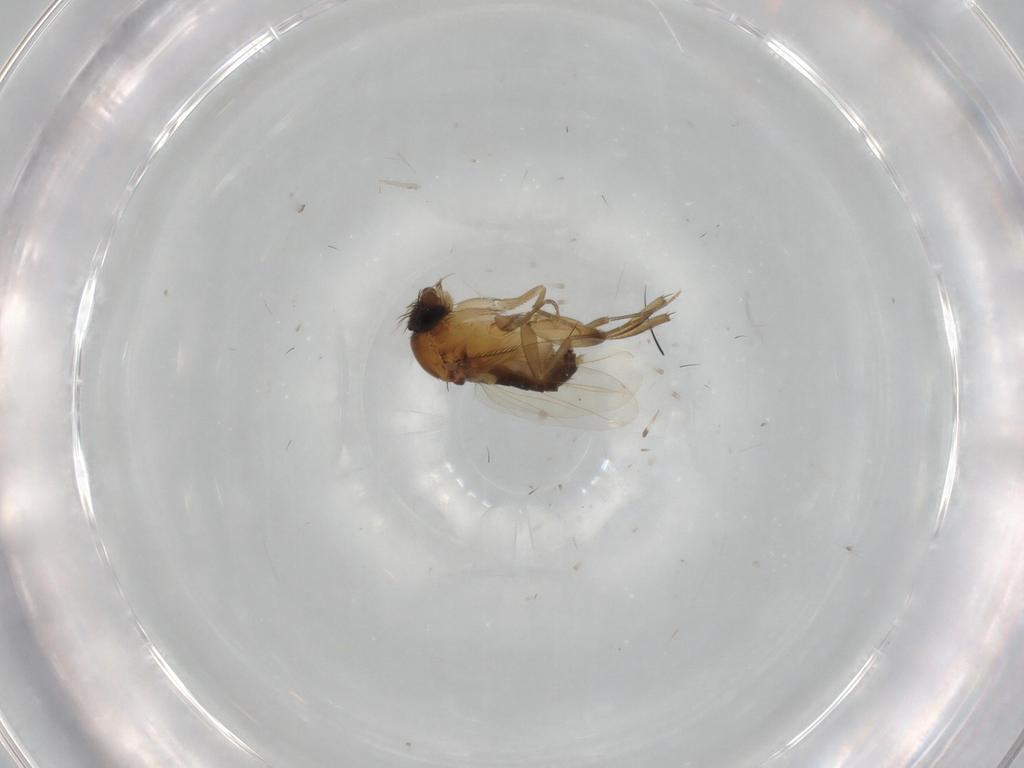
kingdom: Animalia
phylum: Arthropoda
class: Insecta
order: Diptera
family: Phoridae
